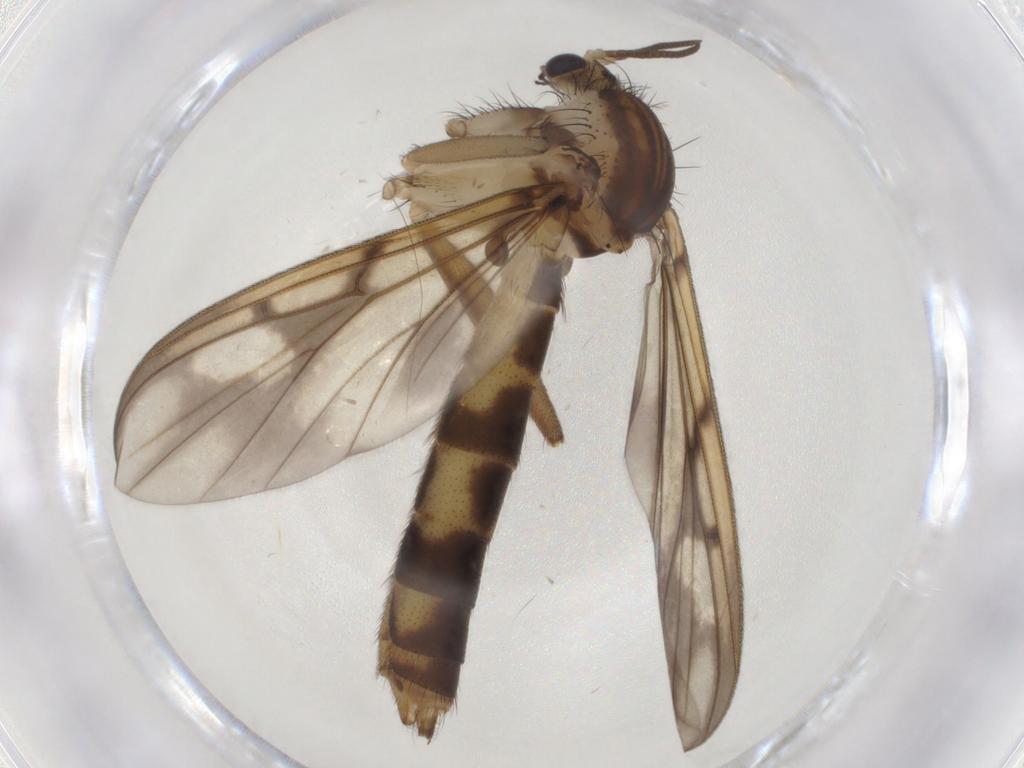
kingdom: Animalia
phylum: Arthropoda
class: Insecta
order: Diptera
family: Mycetophilidae
